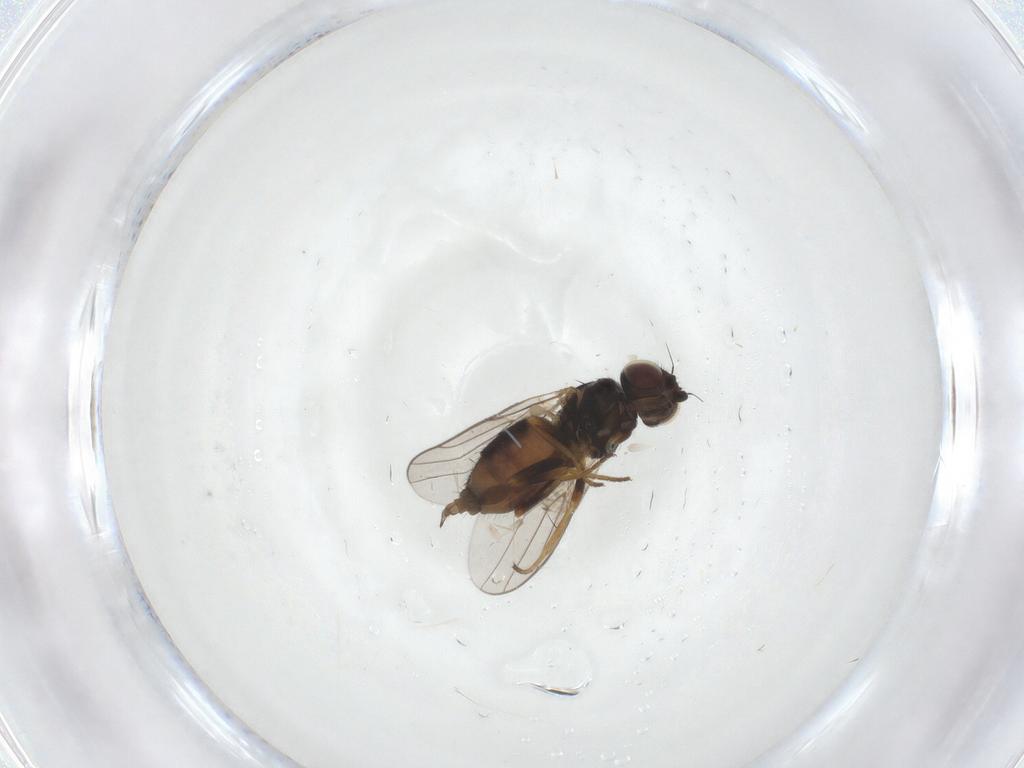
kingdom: Animalia
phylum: Arthropoda
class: Insecta
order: Diptera
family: Chloropidae
